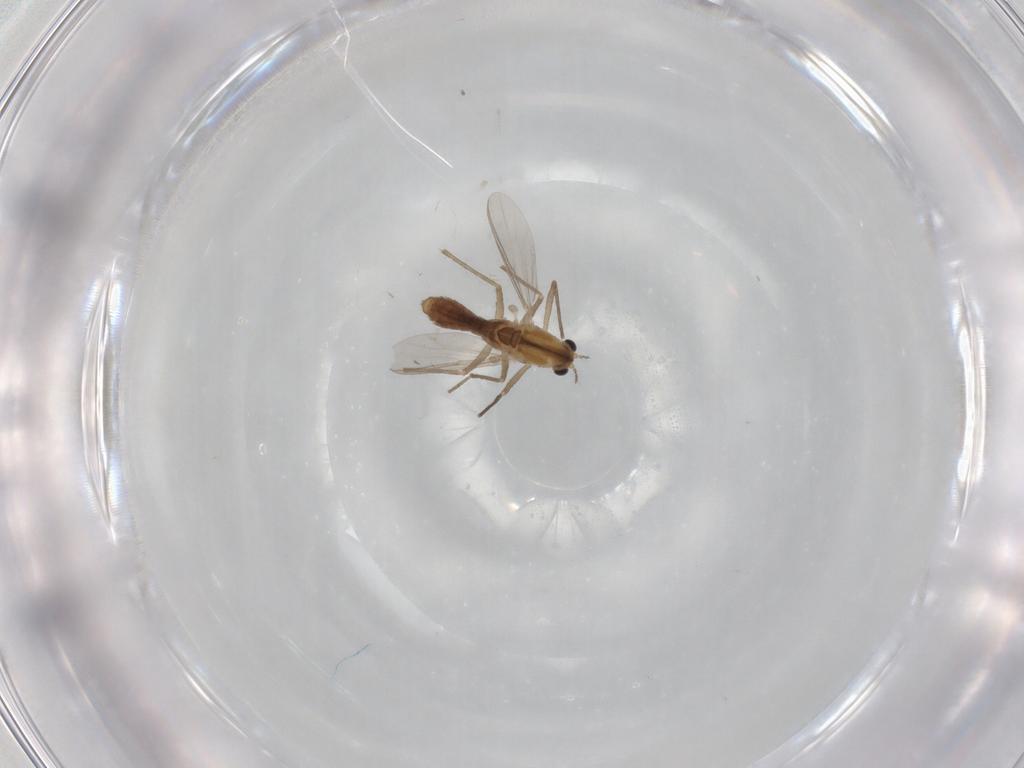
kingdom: Animalia
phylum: Arthropoda
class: Insecta
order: Diptera
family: Chironomidae
